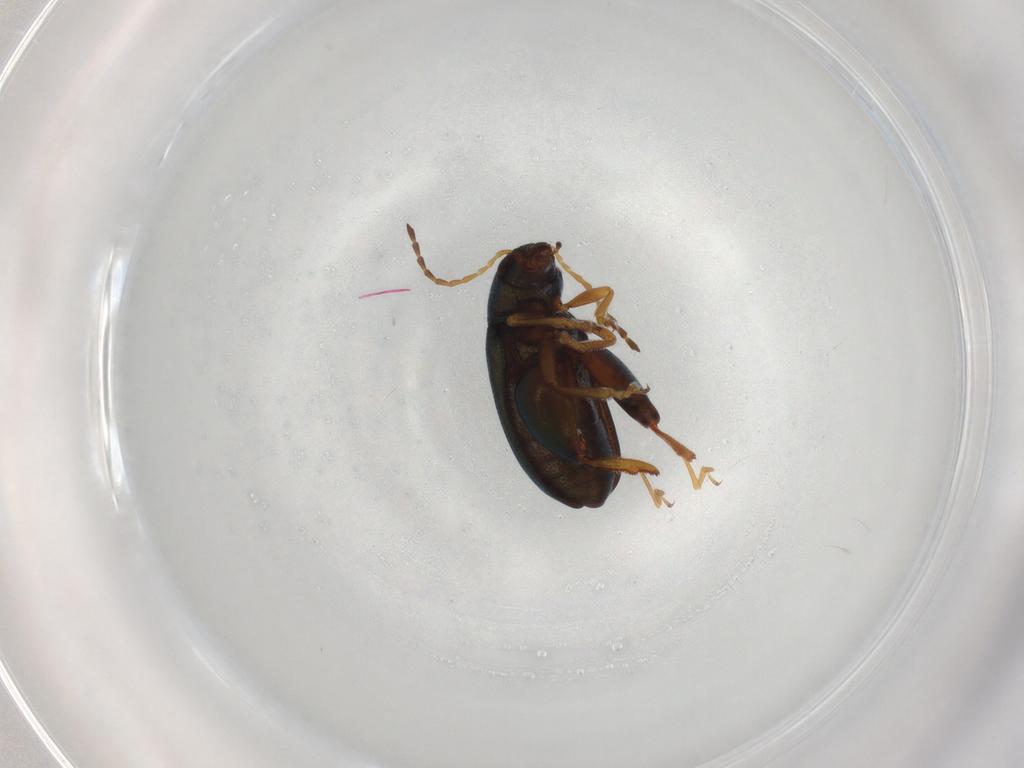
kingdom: Animalia
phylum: Arthropoda
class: Insecta
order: Coleoptera
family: Chrysomelidae
